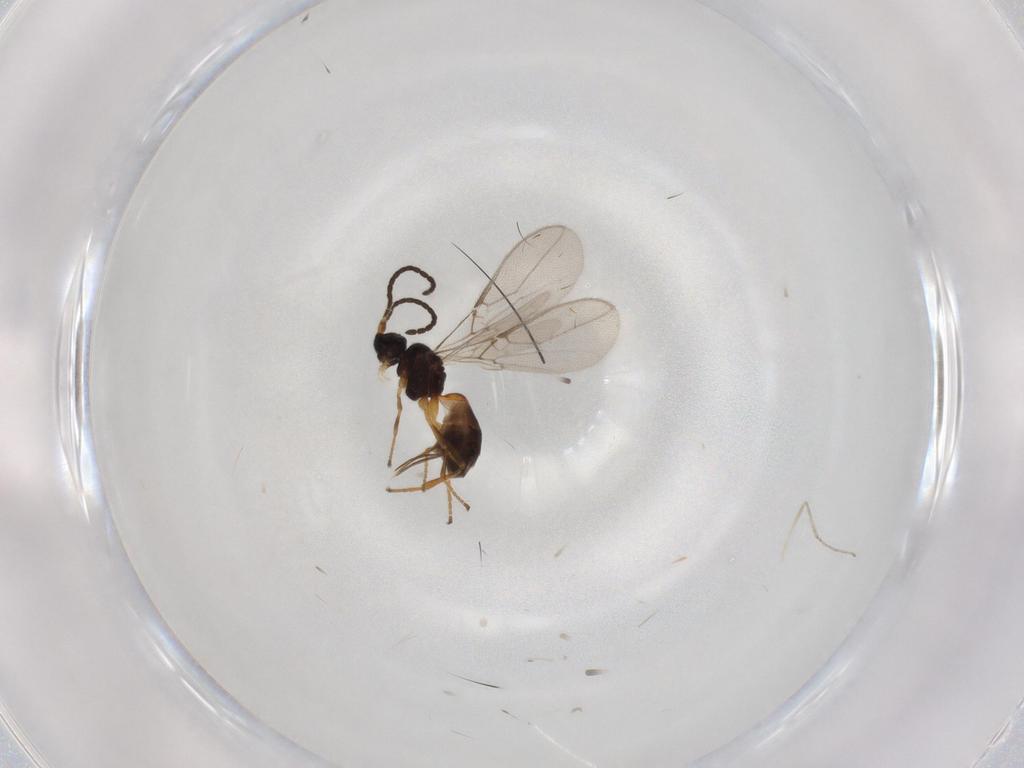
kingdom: Animalia
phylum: Arthropoda
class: Insecta
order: Hymenoptera
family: Braconidae
